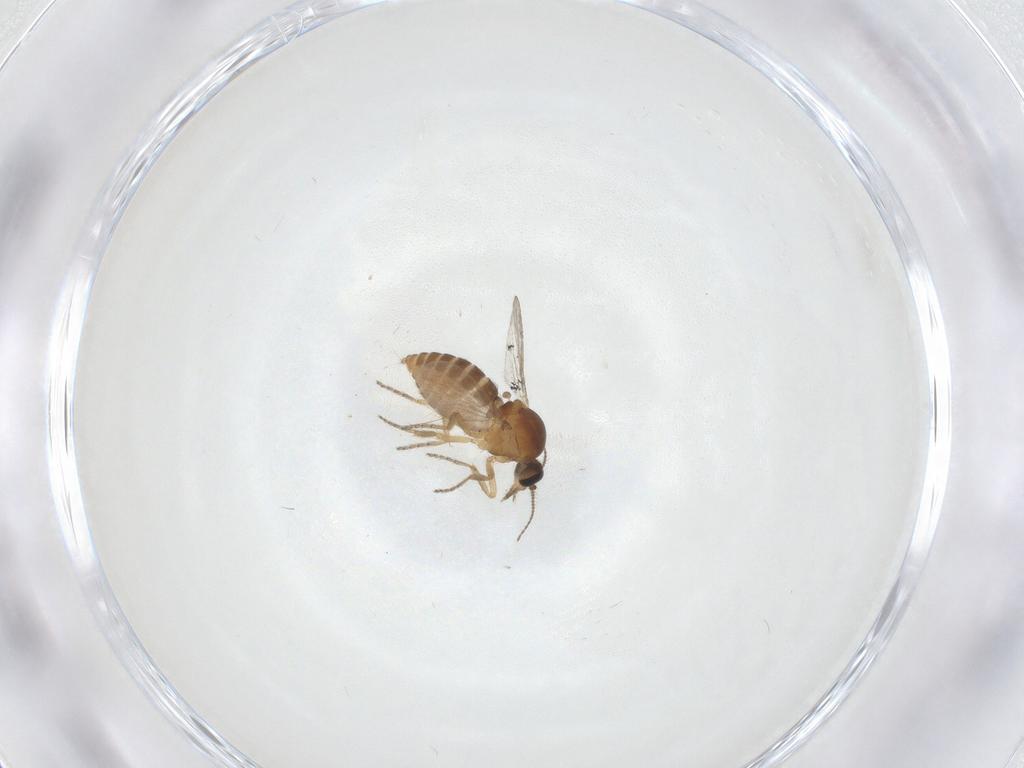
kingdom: Animalia
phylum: Arthropoda
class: Insecta
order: Diptera
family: Ceratopogonidae
